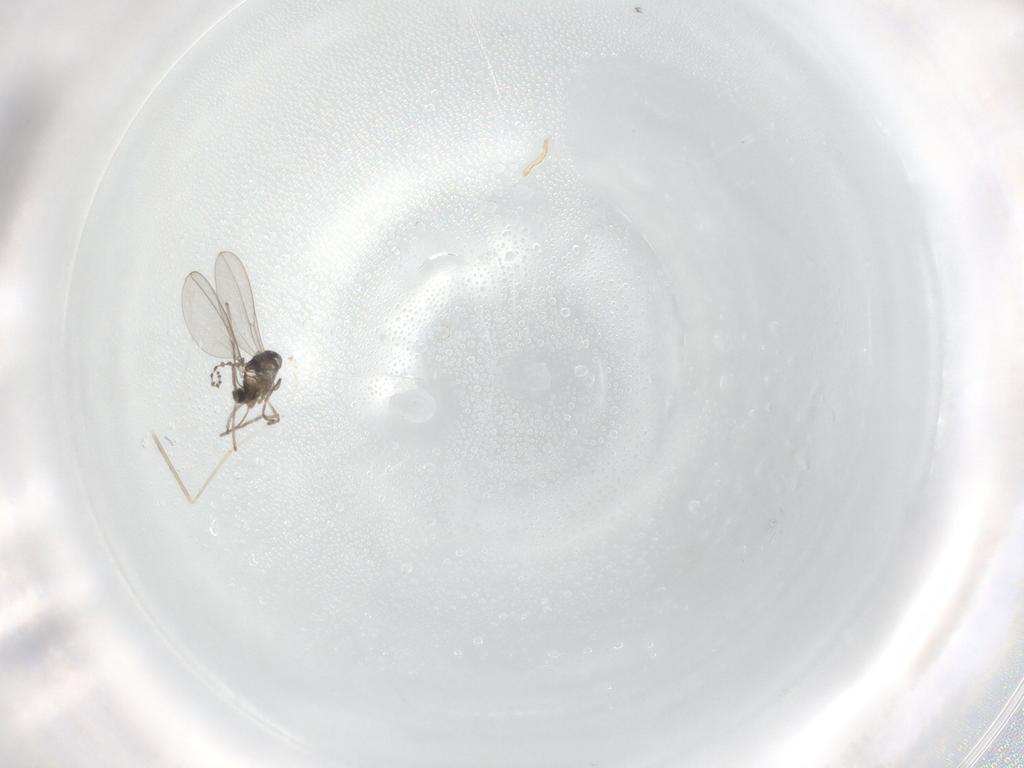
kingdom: Animalia
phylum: Arthropoda
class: Insecta
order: Diptera
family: Cecidomyiidae
